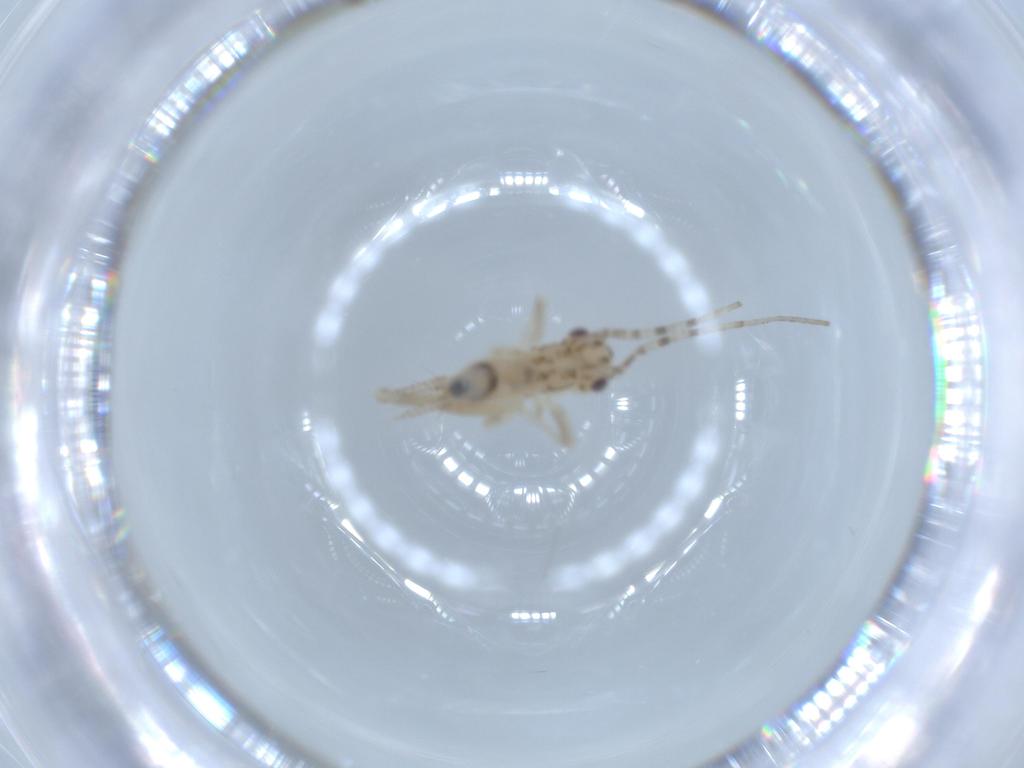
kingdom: Animalia
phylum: Arthropoda
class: Insecta
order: Orthoptera
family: Trigonidiidae
